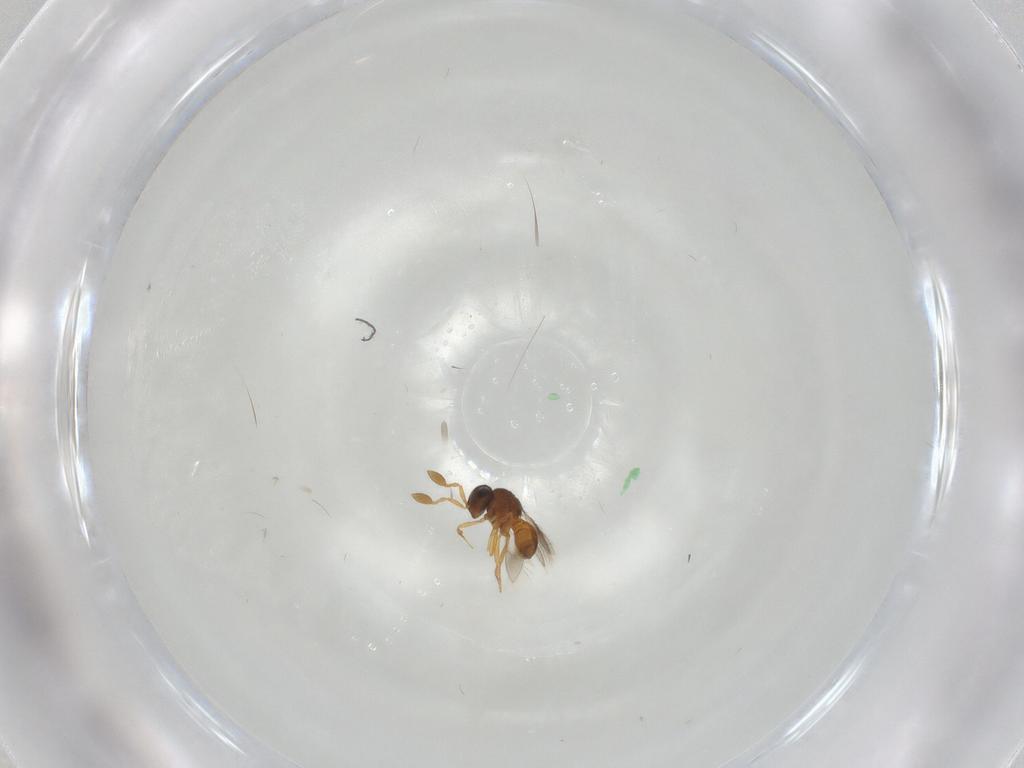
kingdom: Animalia
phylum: Arthropoda
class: Insecta
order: Hymenoptera
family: Scelionidae
